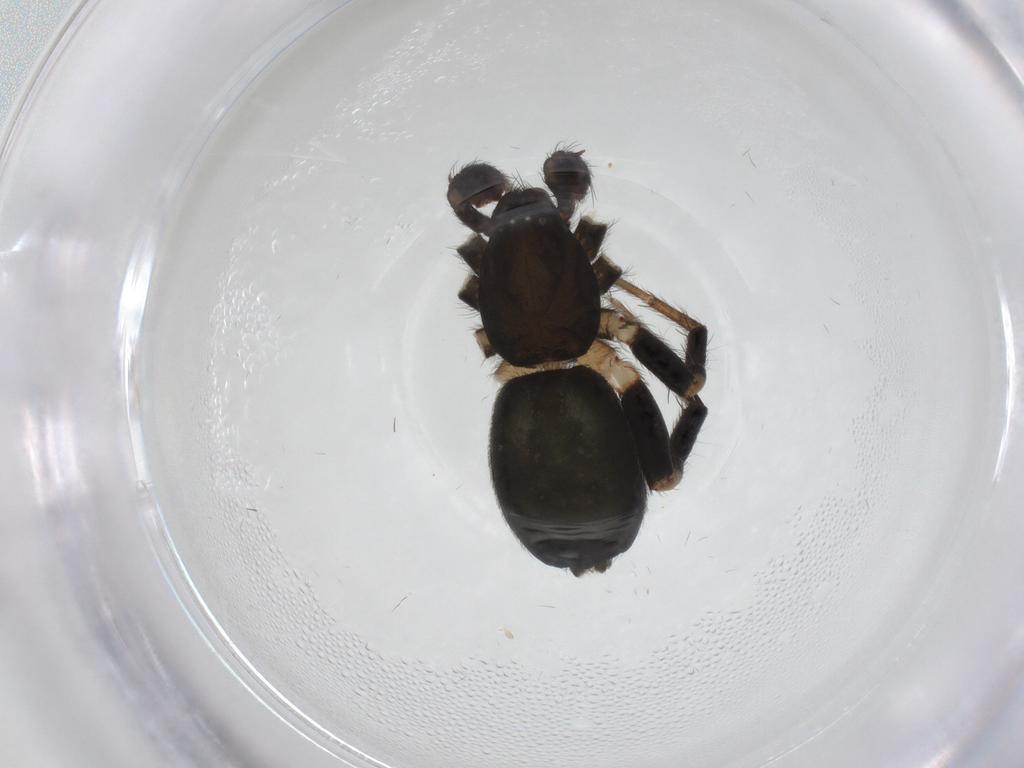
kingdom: Animalia
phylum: Arthropoda
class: Arachnida
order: Araneae
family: Gnaphosidae
